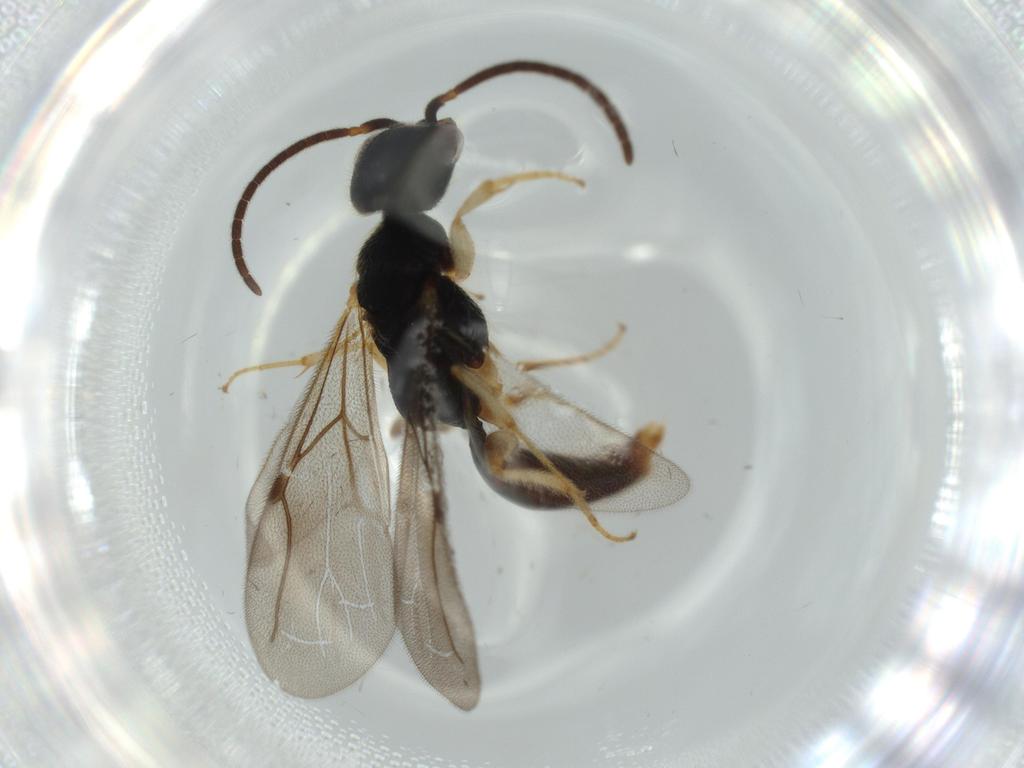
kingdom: Animalia
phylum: Arthropoda
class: Insecta
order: Hymenoptera
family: Bethylidae
